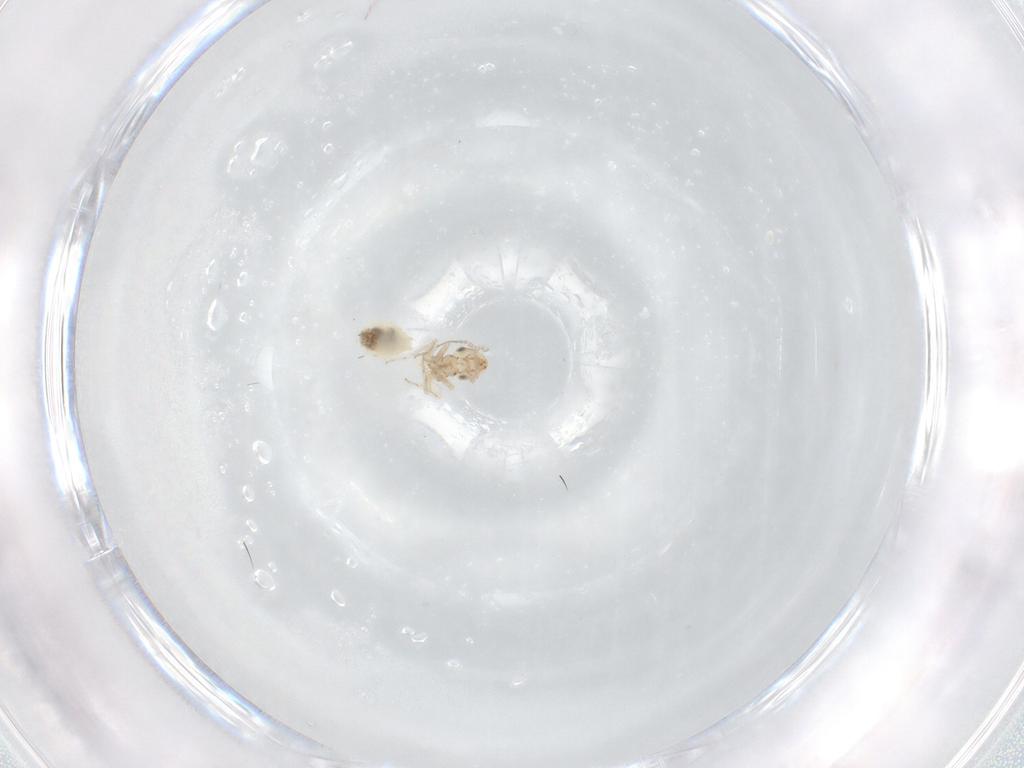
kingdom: Animalia
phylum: Arthropoda
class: Insecta
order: Psocodea
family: Lepidopsocidae
